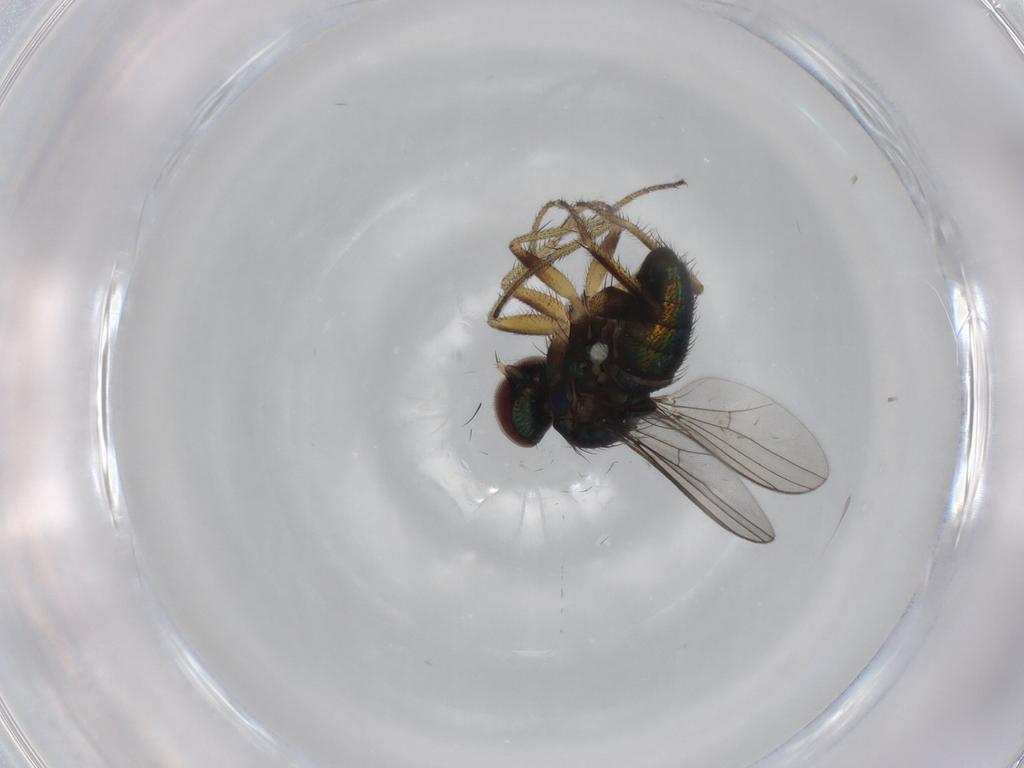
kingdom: Animalia
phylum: Arthropoda
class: Insecta
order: Diptera
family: Dolichopodidae
